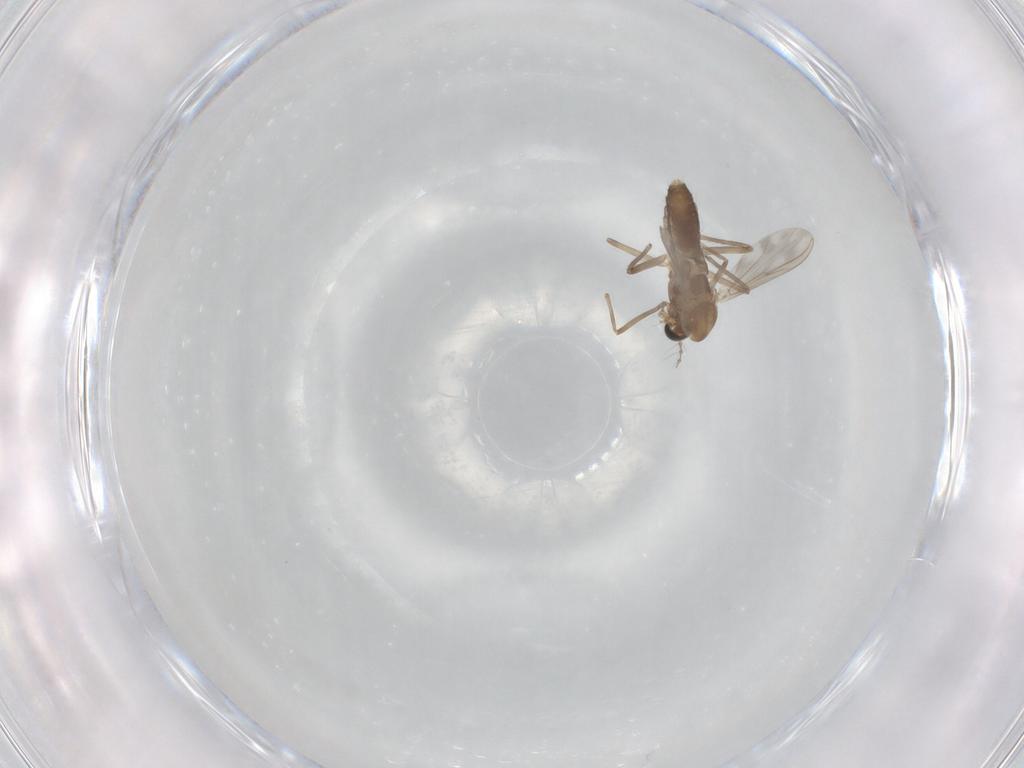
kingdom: Animalia
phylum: Arthropoda
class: Insecta
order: Diptera
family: Chironomidae
